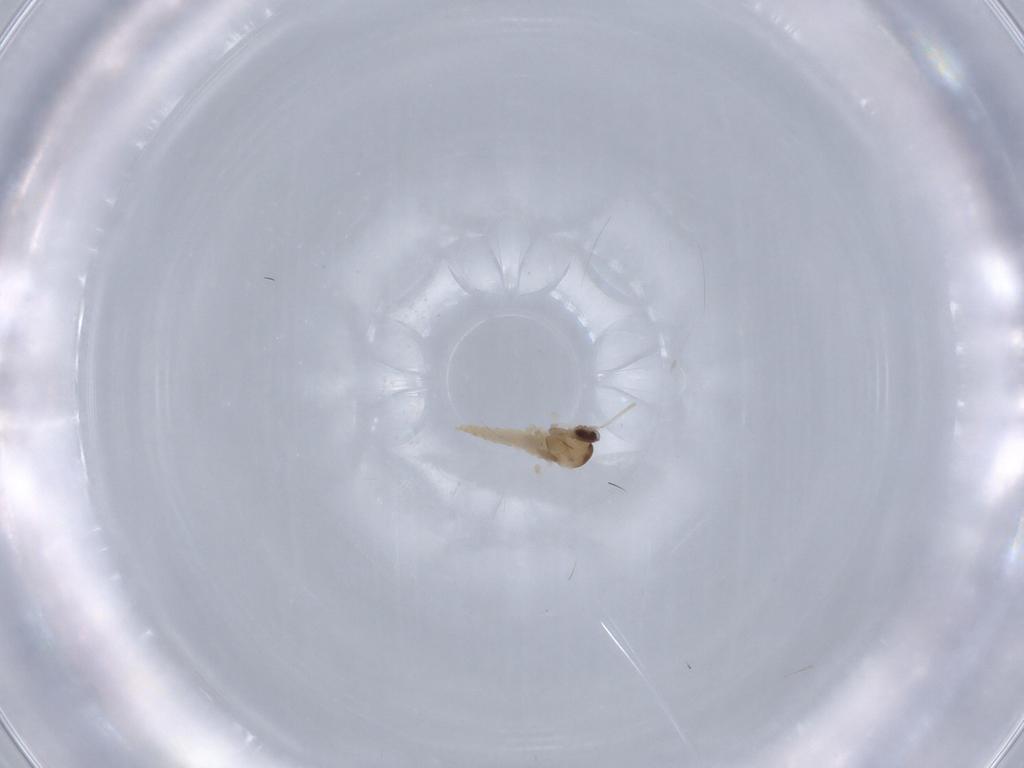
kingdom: Animalia
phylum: Arthropoda
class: Insecta
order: Diptera
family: Cecidomyiidae
